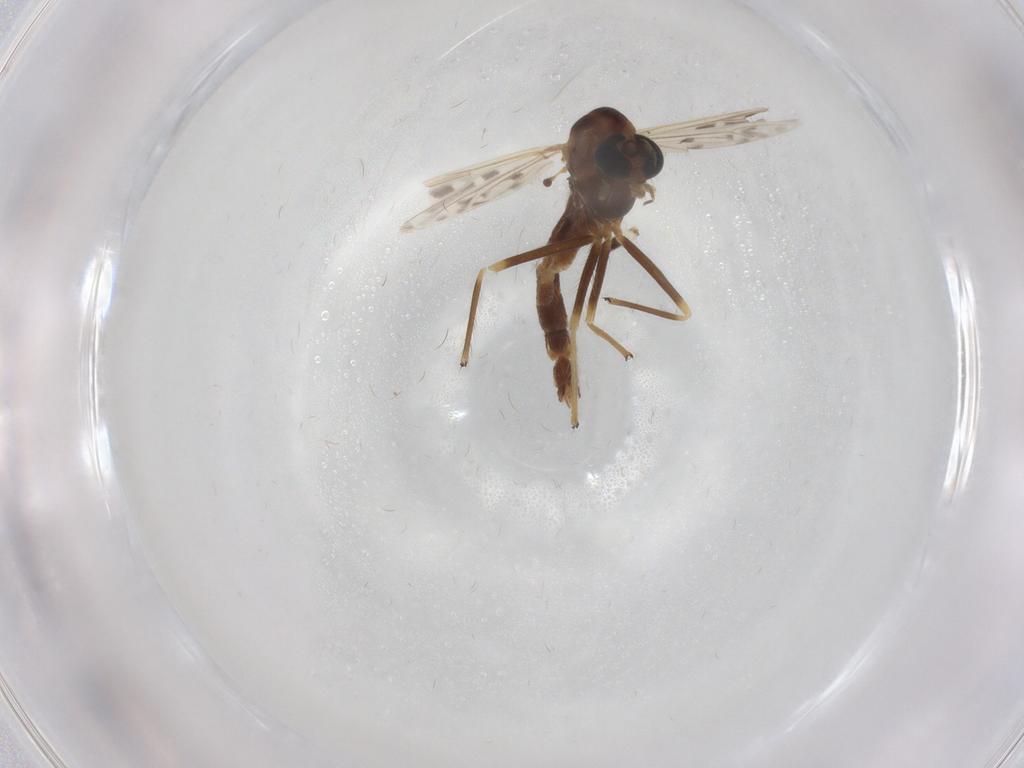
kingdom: Animalia
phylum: Arthropoda
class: Insecta
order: Diptera
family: Chironomidae
